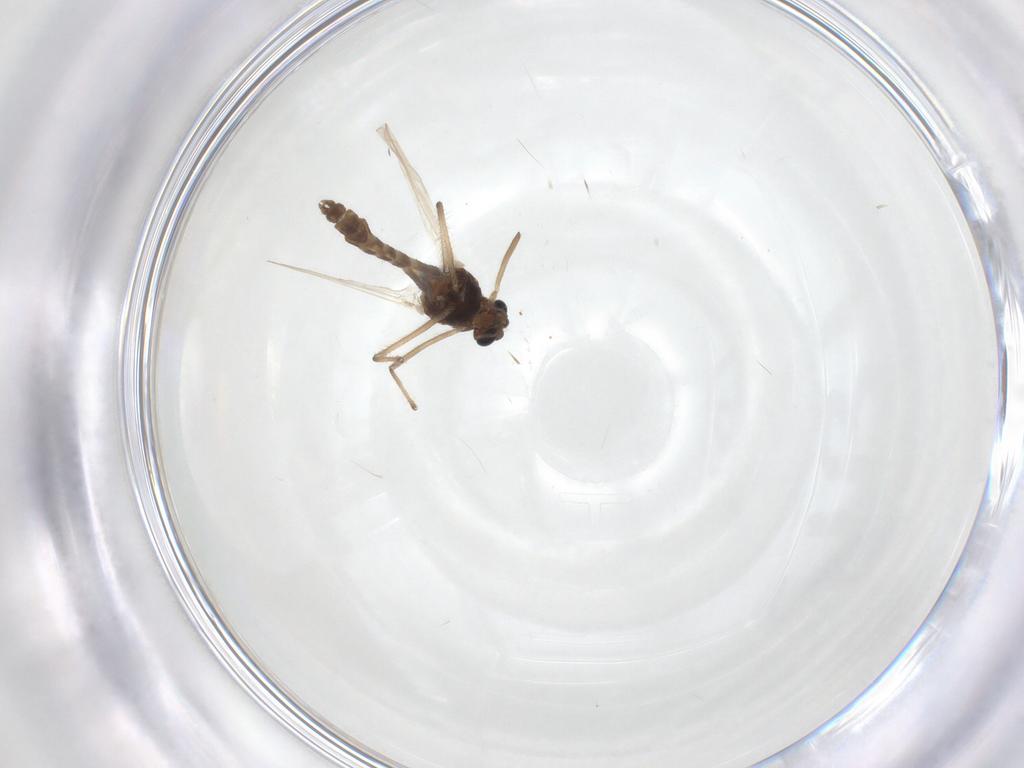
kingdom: Animalia
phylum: Arthropoda
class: Insecta
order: Diptera
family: Chironomidae
